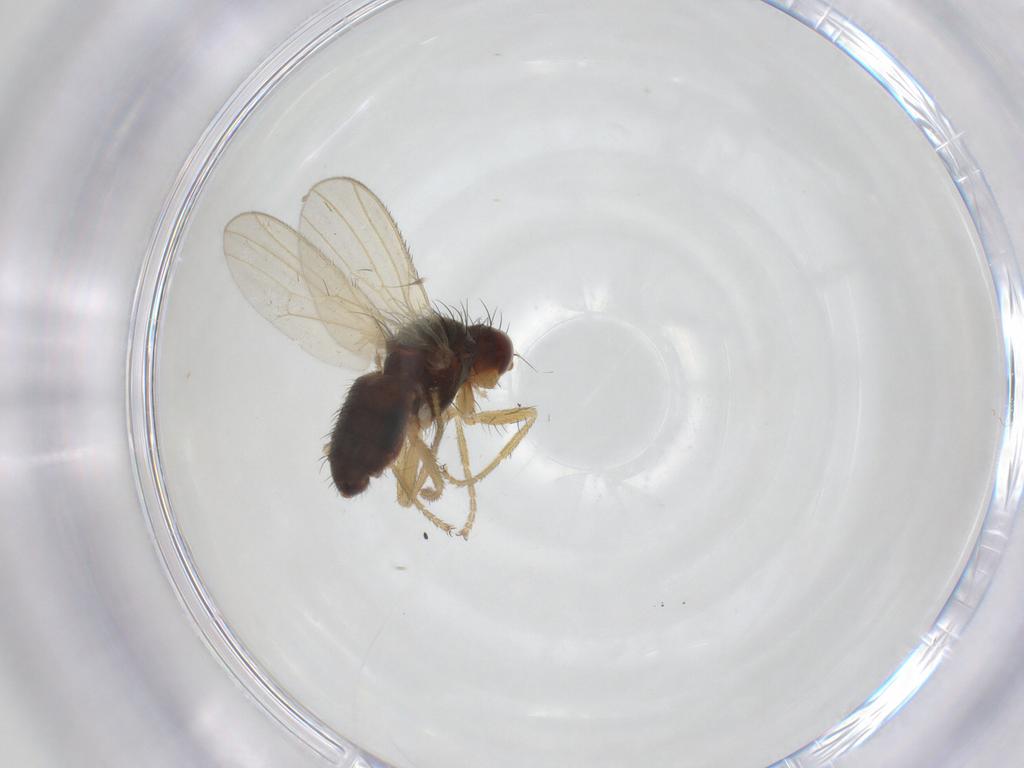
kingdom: Animalia
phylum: Arthropoda
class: Insecta
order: Diptera
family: Heleomyzidae
